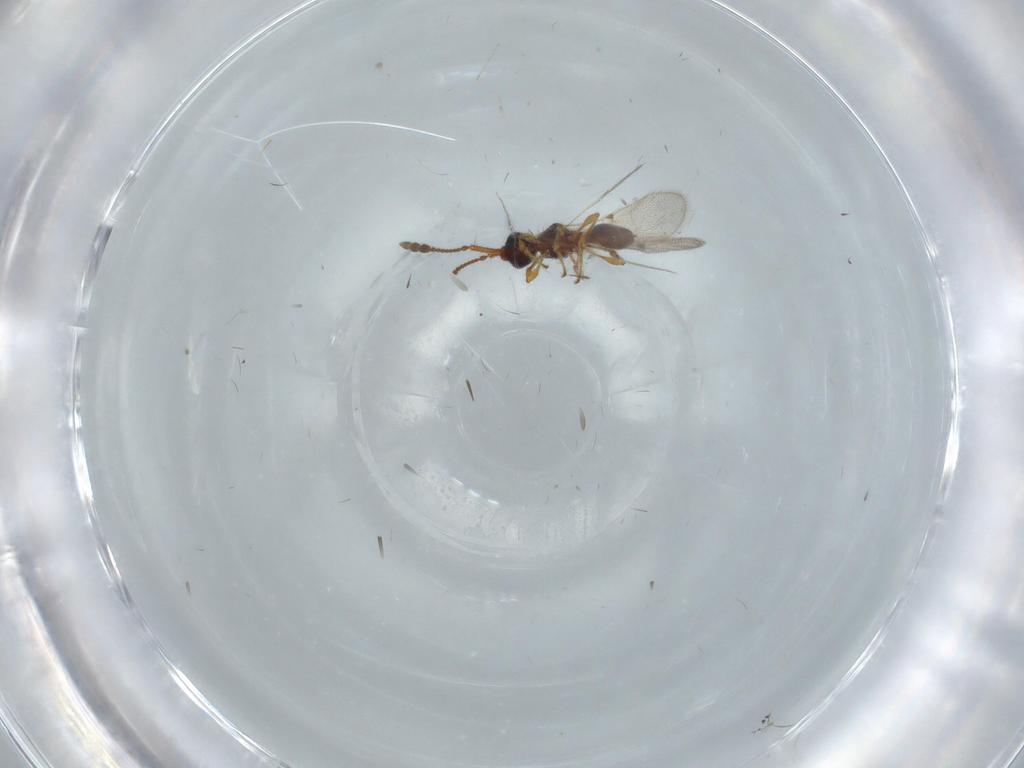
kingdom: Animalia
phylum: Arthropoda
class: Insecta
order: Hymenoptera
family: Diapriidae
